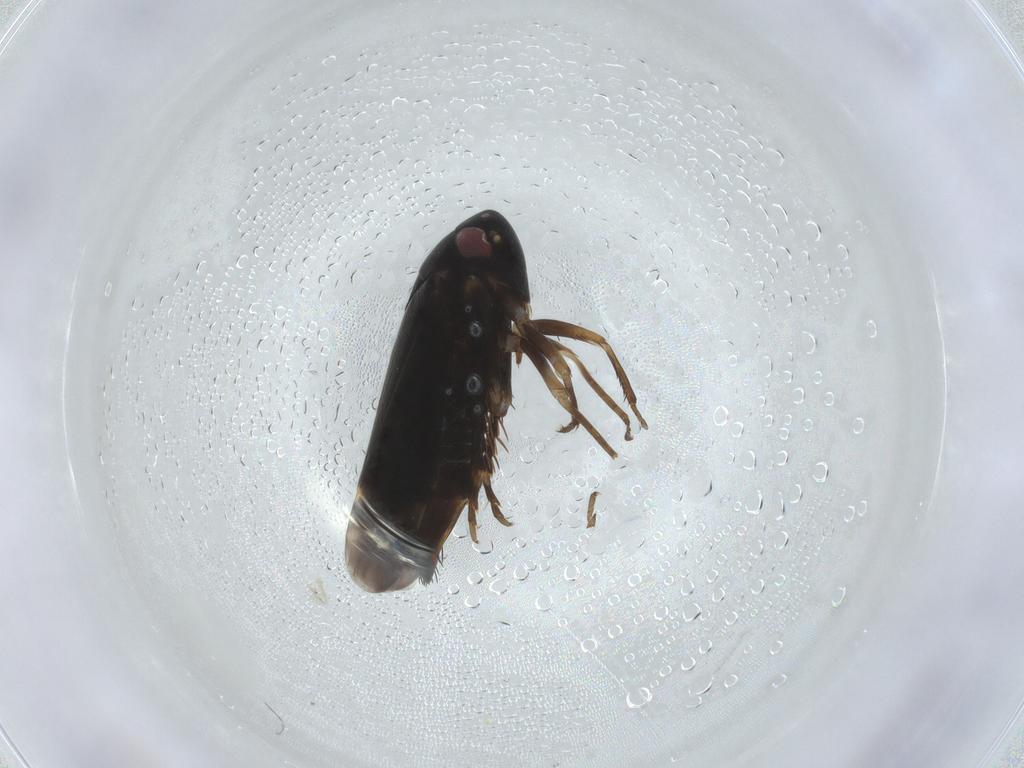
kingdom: Animalia
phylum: Arthropoda
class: Insecta
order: Hemiptera
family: Cicadellidae
